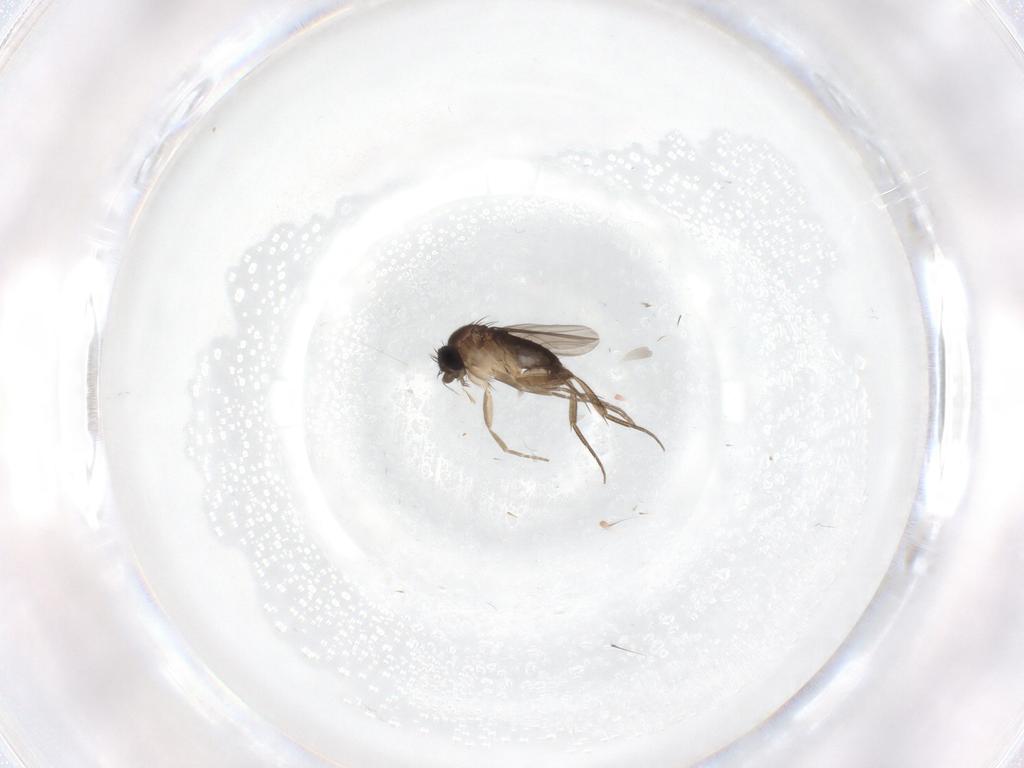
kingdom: Animalia
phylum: Arthropoda
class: Insecta
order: Diptera
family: Phoridae
